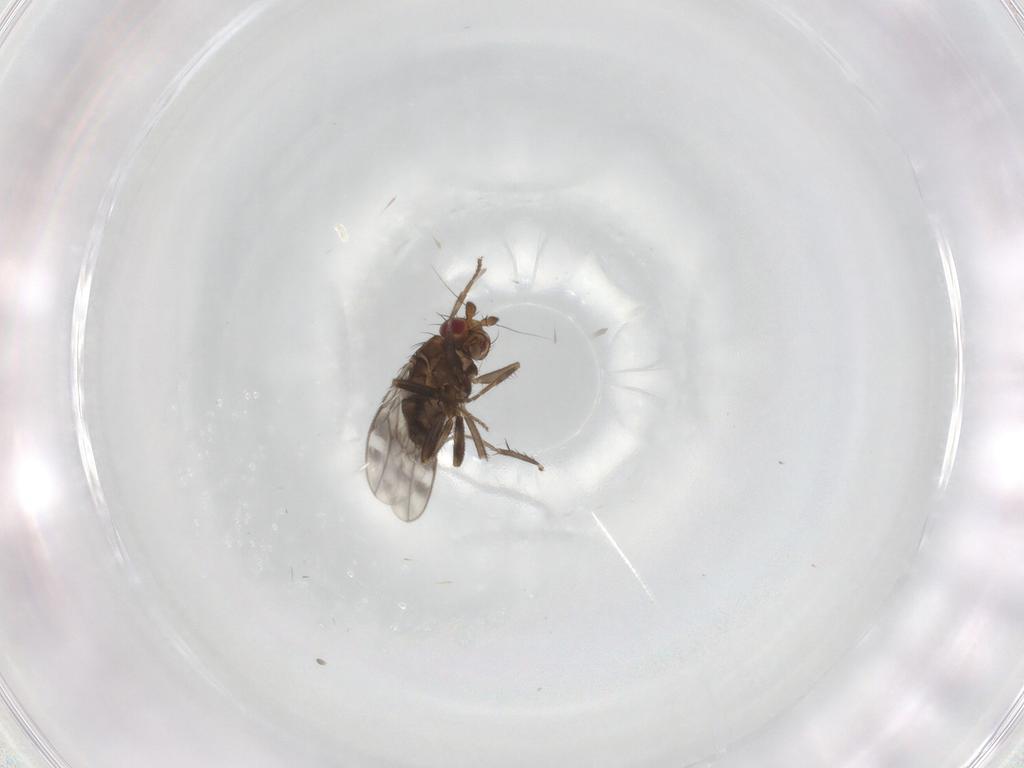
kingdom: Animalia
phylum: Arthropoda
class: Insecta
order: Diptera
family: Sphaeroceridae
